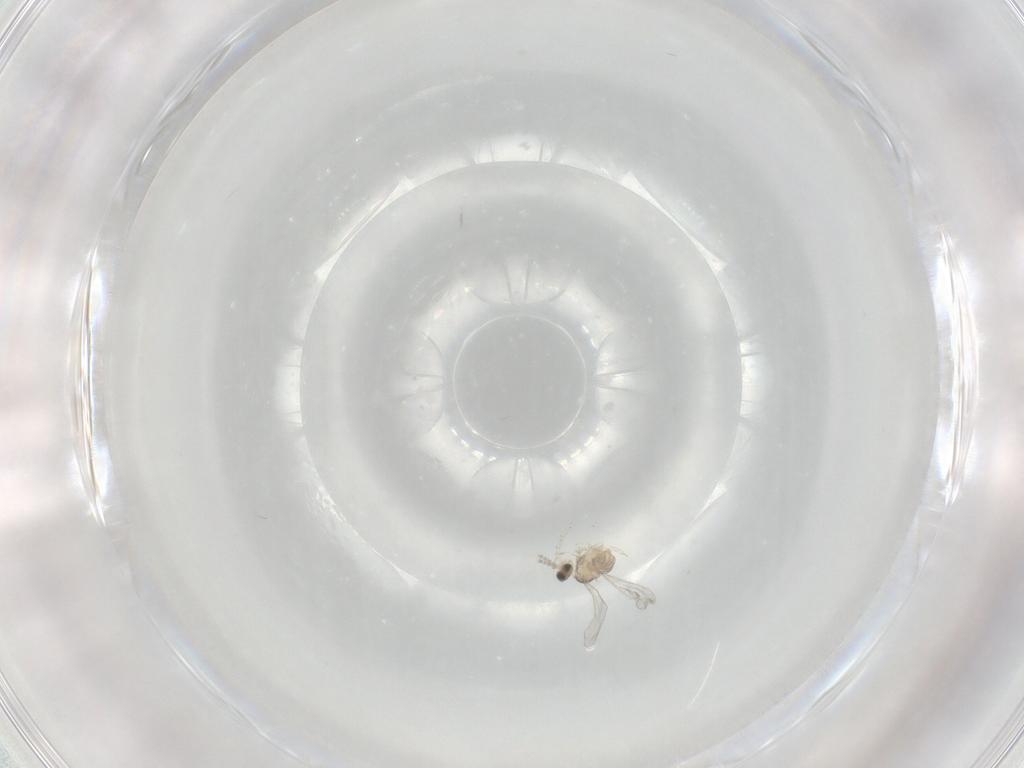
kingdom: Animalia
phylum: Arthropoda
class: Insecta
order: Diptera
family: Cecidomyiidae
